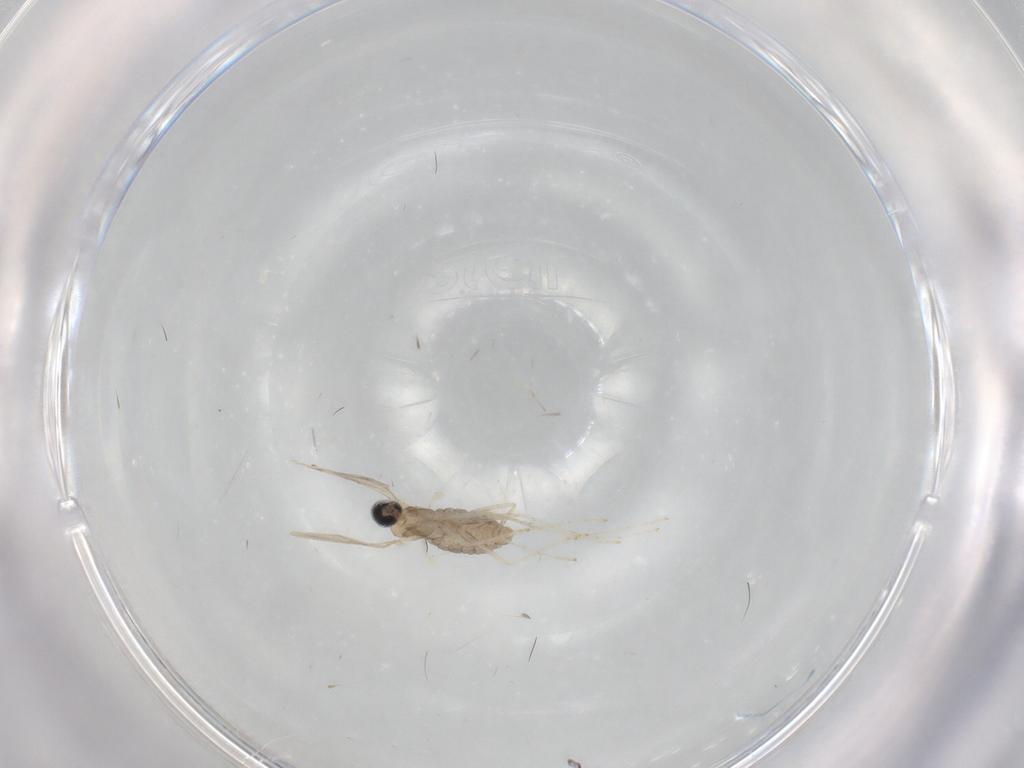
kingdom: Animalia
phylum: Arthropoda
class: Insecta
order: Diptera
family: Cecidomyiidae
